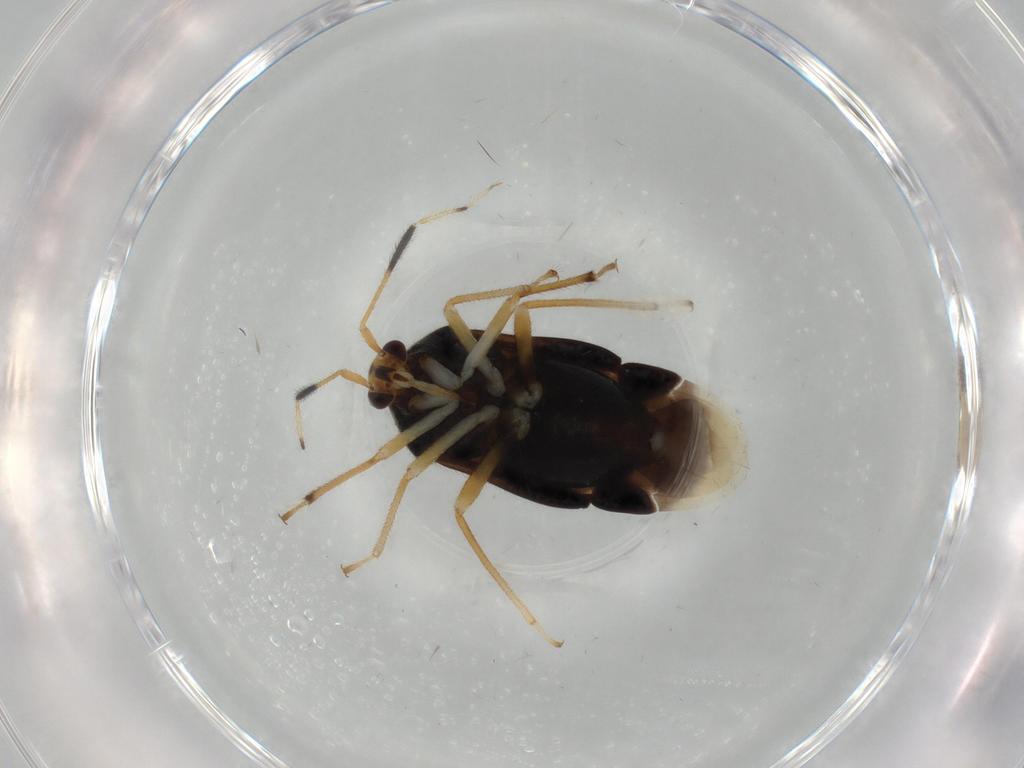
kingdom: Animalia
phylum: Arthropoda
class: Insecta
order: Hemiptera
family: Miridae
